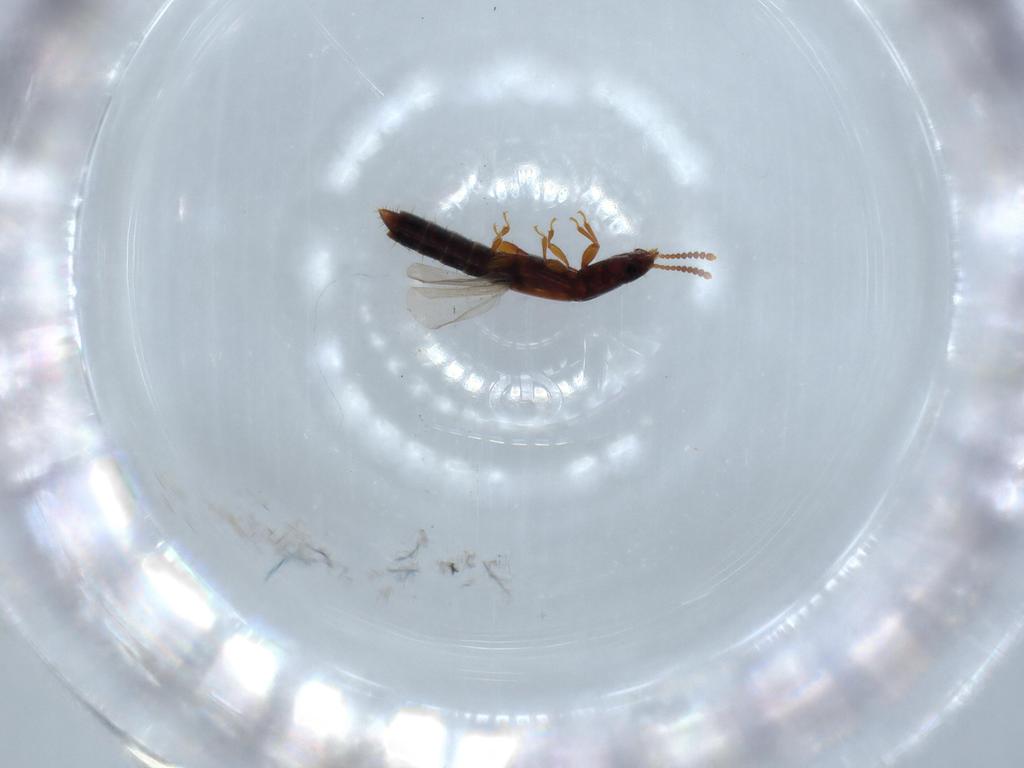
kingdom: Animalia
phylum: Arthropoda
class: Insecta
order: Coleoptera
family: Staphylinidae
